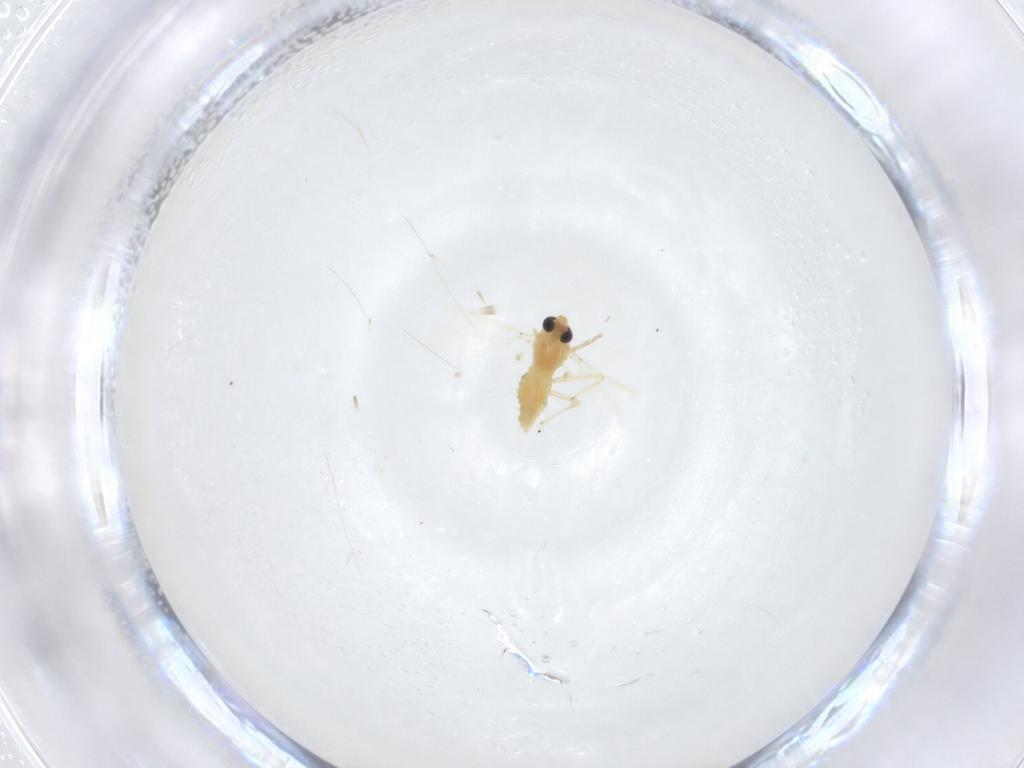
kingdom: Animalia
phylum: Arthropoda
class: Insecta
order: Diptera
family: Chironomidae
